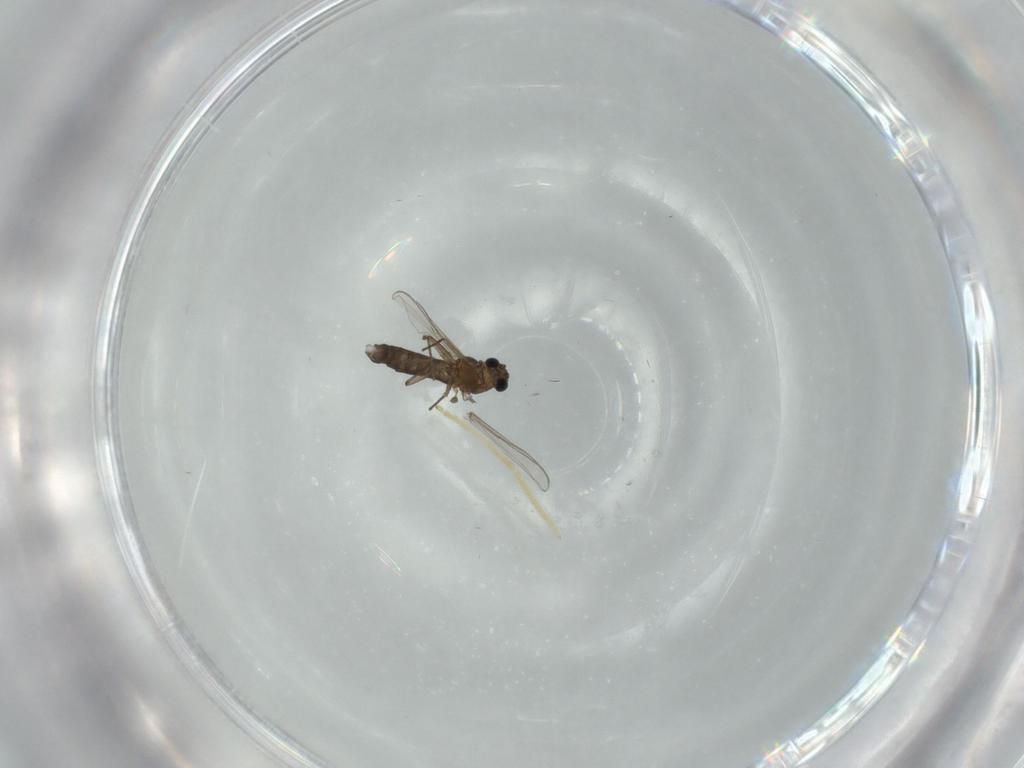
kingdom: Animalia
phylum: Arthropoda
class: Insecta
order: Diptera
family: Chironomidae
